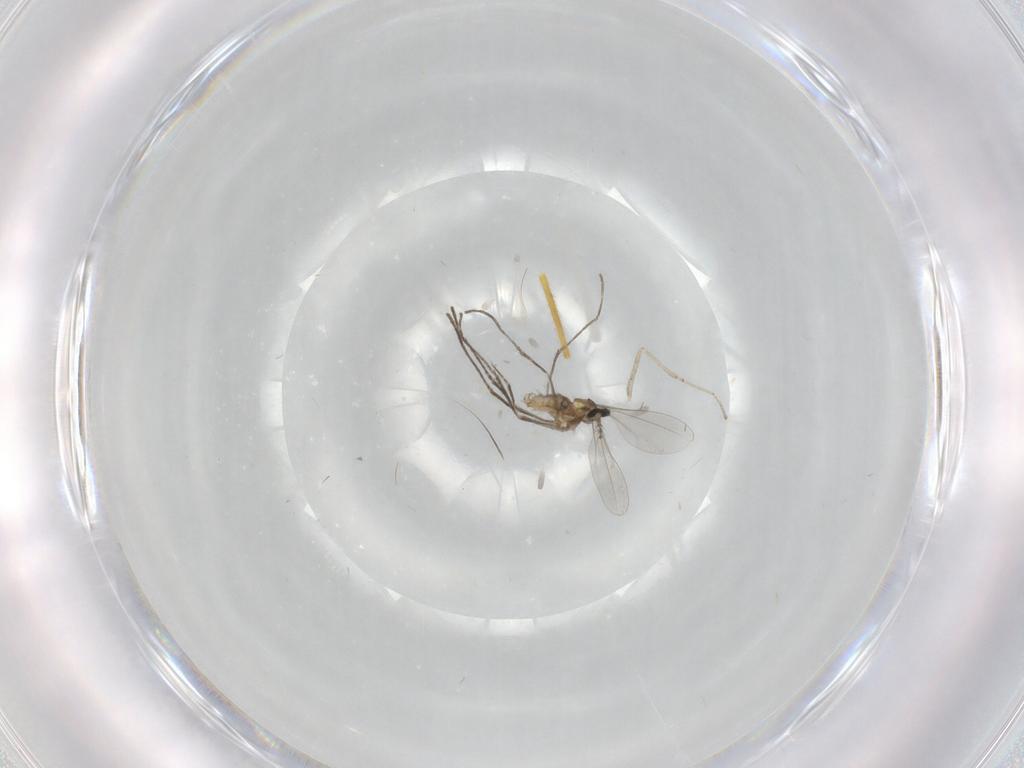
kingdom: Animalia
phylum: Arthropoda
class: Insecta
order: Diptera
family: Cecidomyiidae
